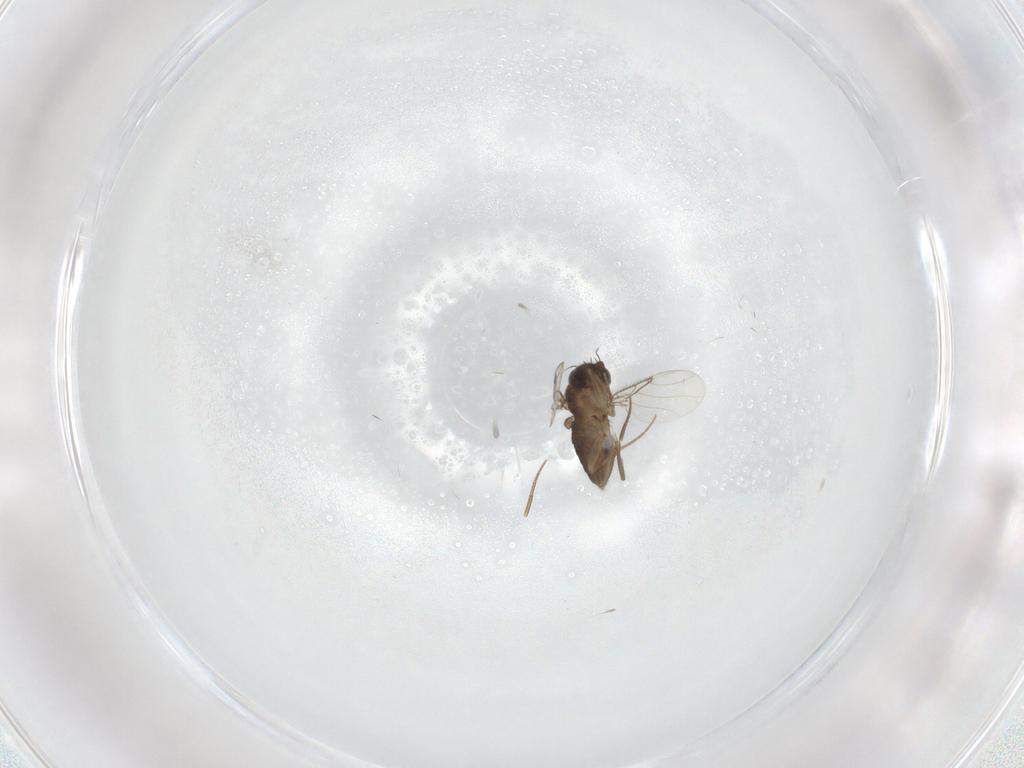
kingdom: Animalia
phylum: Arthropoda
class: Insecta
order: Diptera
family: Phoridae
